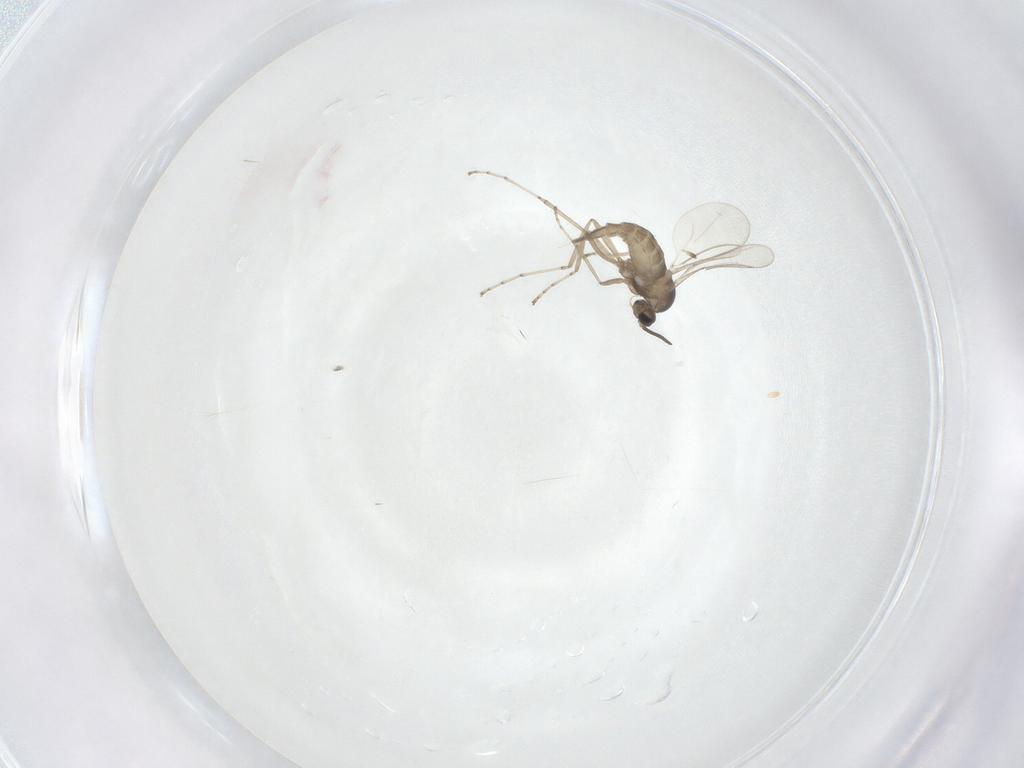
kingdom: Animalia
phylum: Arthropoda
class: Insecta
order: Diptera
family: Cecidomyiidae
